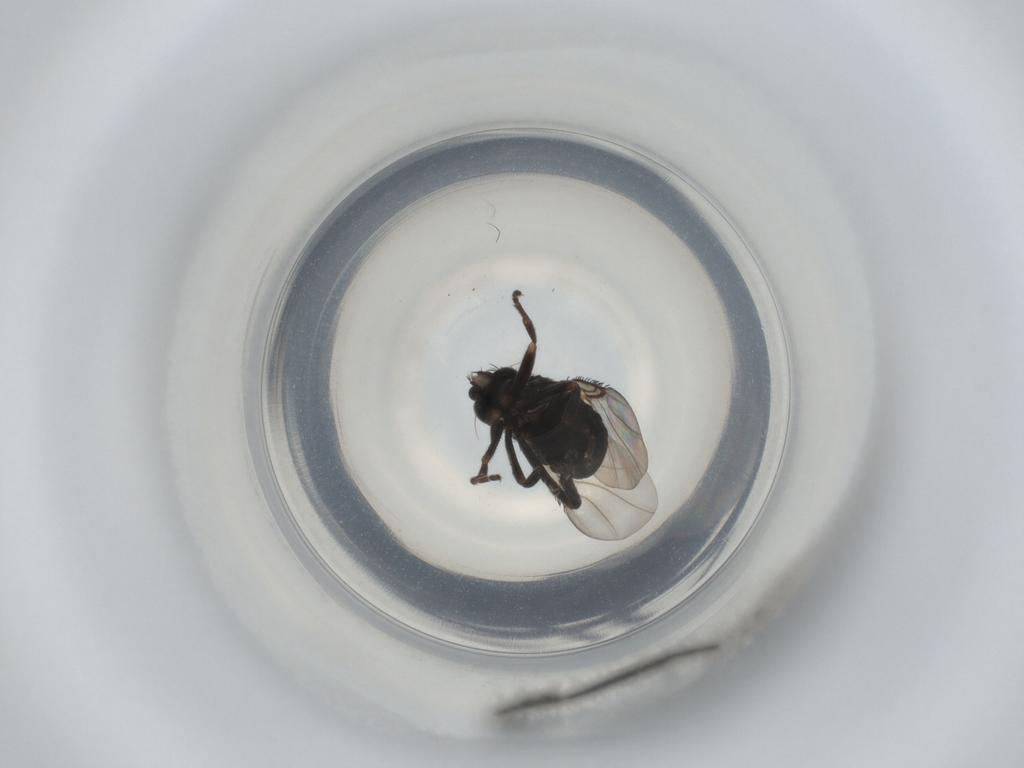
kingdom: Animalia
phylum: Arthropoda
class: Insecta
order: Diptera
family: Phoridae
